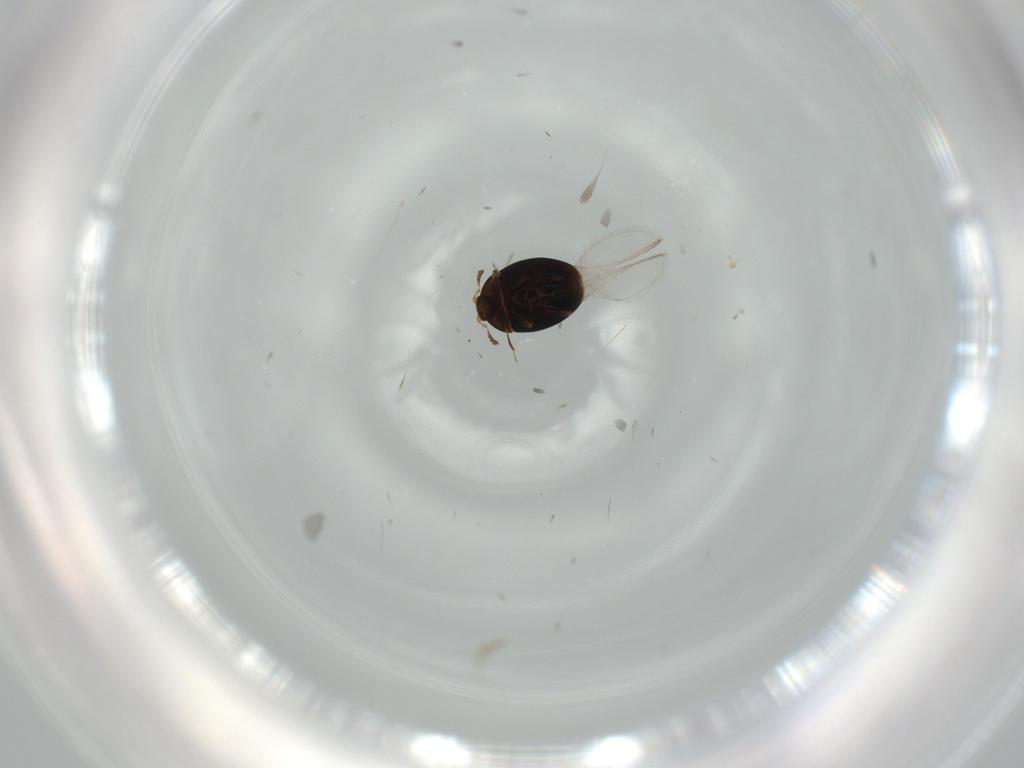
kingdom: Animalia
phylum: Arthropoda
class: Insecta
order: Coleoptera
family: Corylophidae
